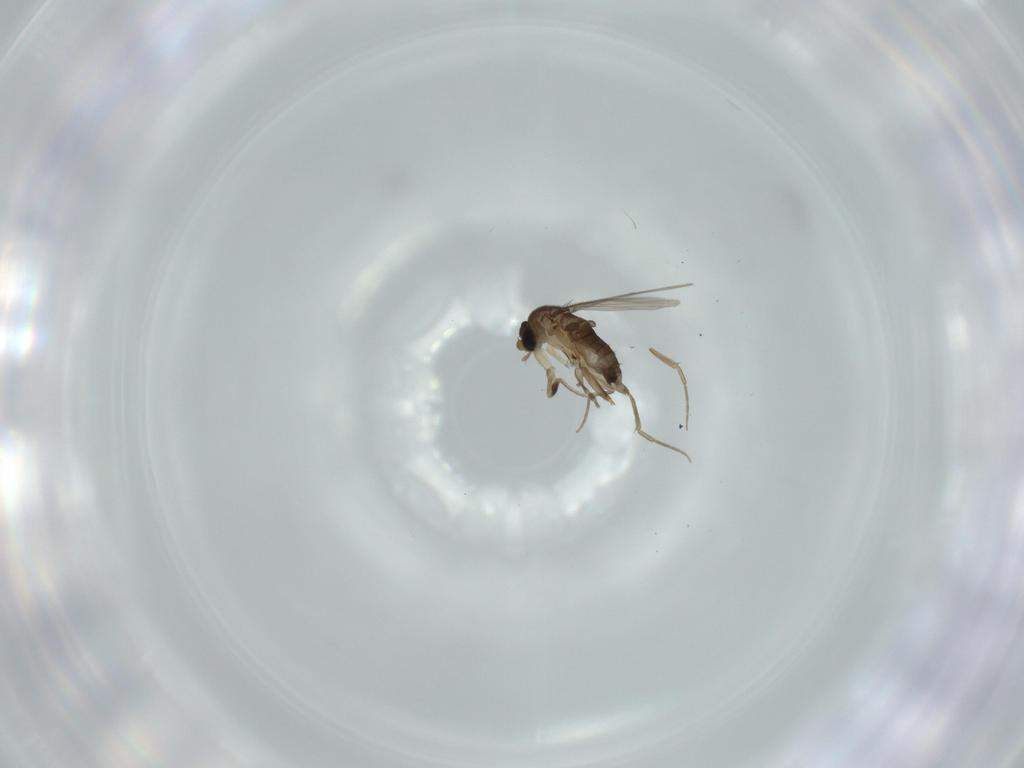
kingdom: Animalia
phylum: Arthropoda
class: Insecta
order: Diptera
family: Phoridae
